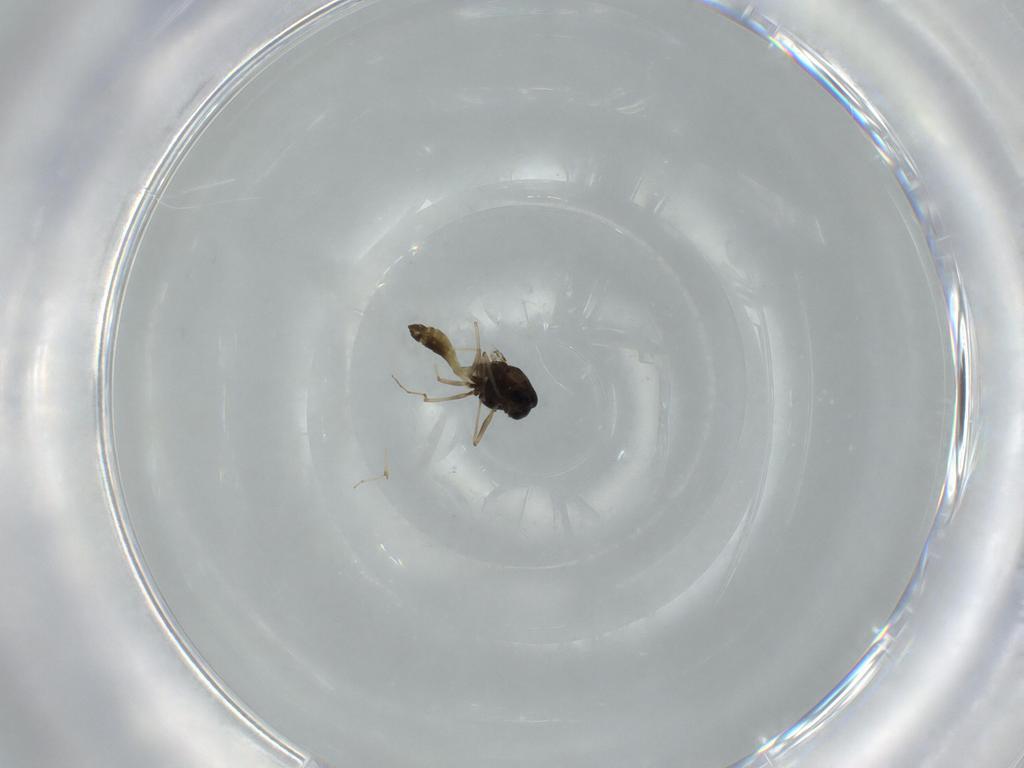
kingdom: Animalia
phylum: Arthropoda
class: Insecta
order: Diptera
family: Chironomidae
